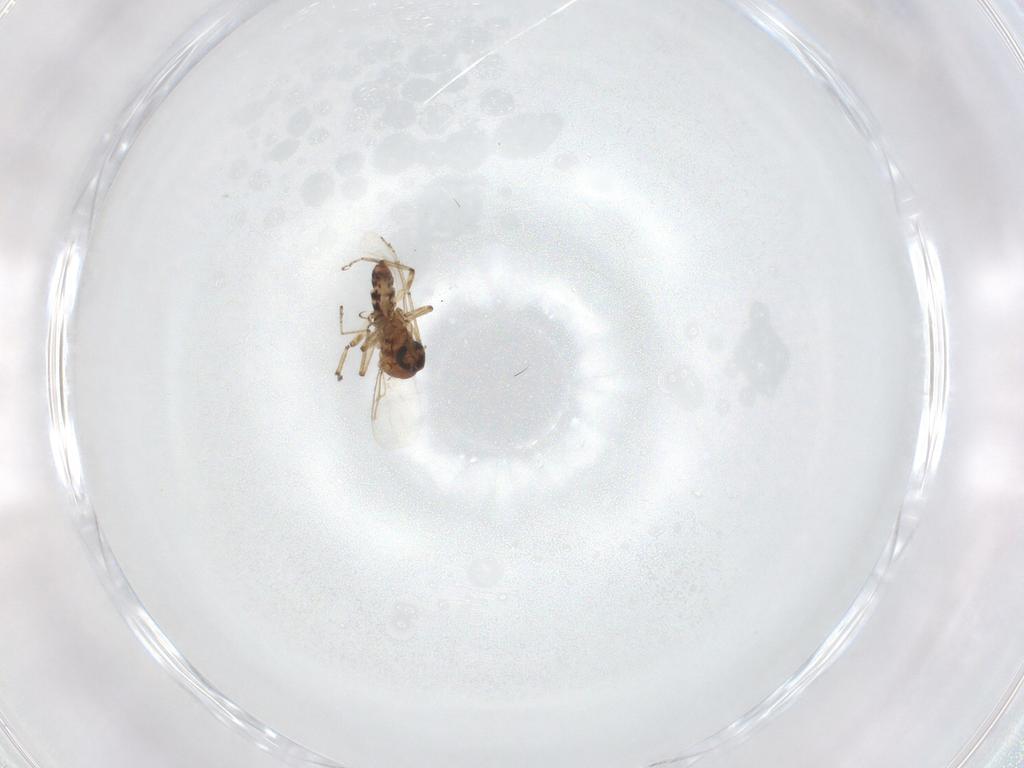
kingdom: Animalia
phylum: Arthropoda
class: Insecta
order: Diptera
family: Ceratopogonidae
